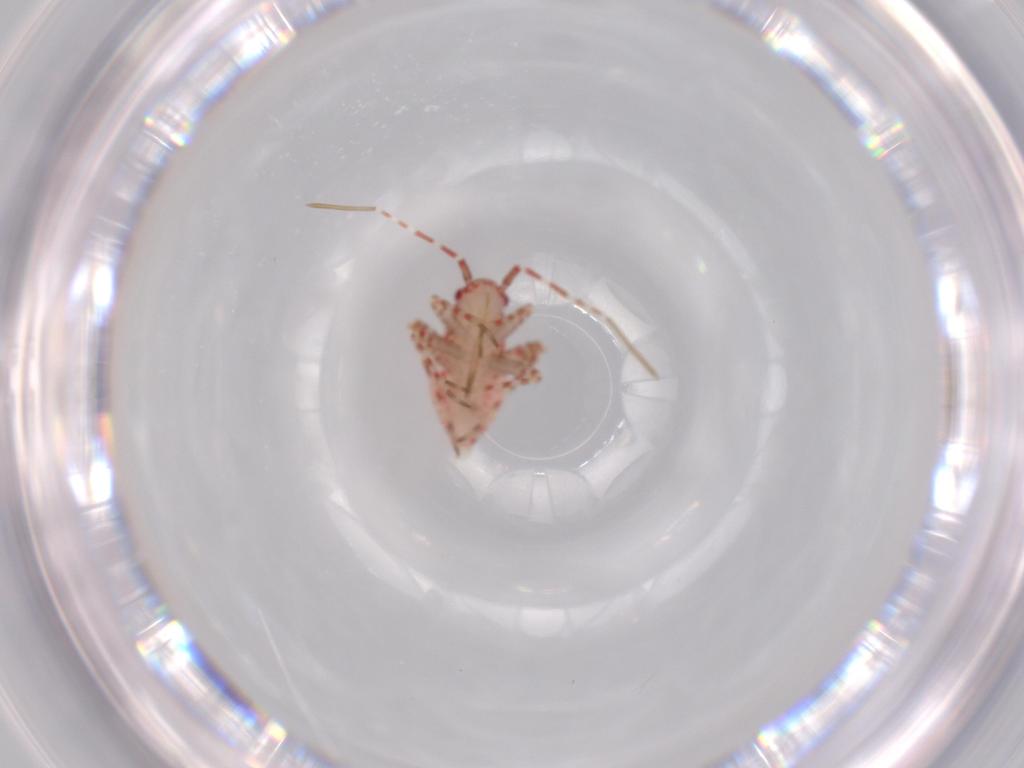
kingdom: Animalia
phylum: Arthropoda
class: Insecta
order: Hemiptera
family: Miridae
